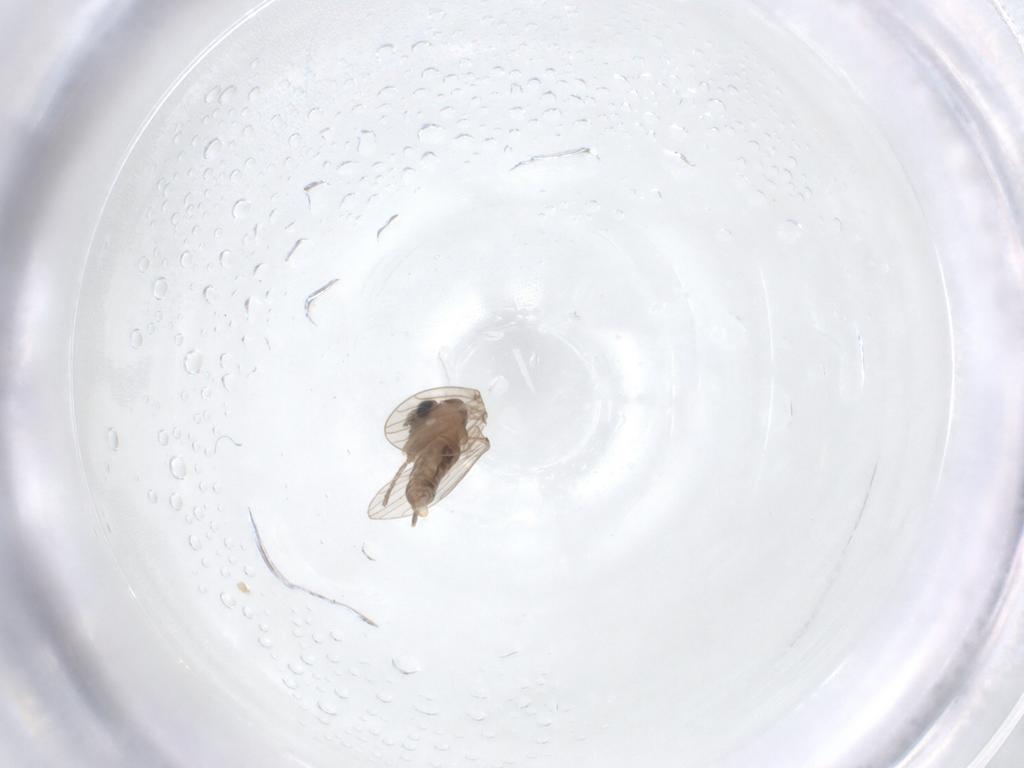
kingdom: Animalia
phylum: Arthropoda
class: Insecta
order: Diptera
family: Psychodidae
